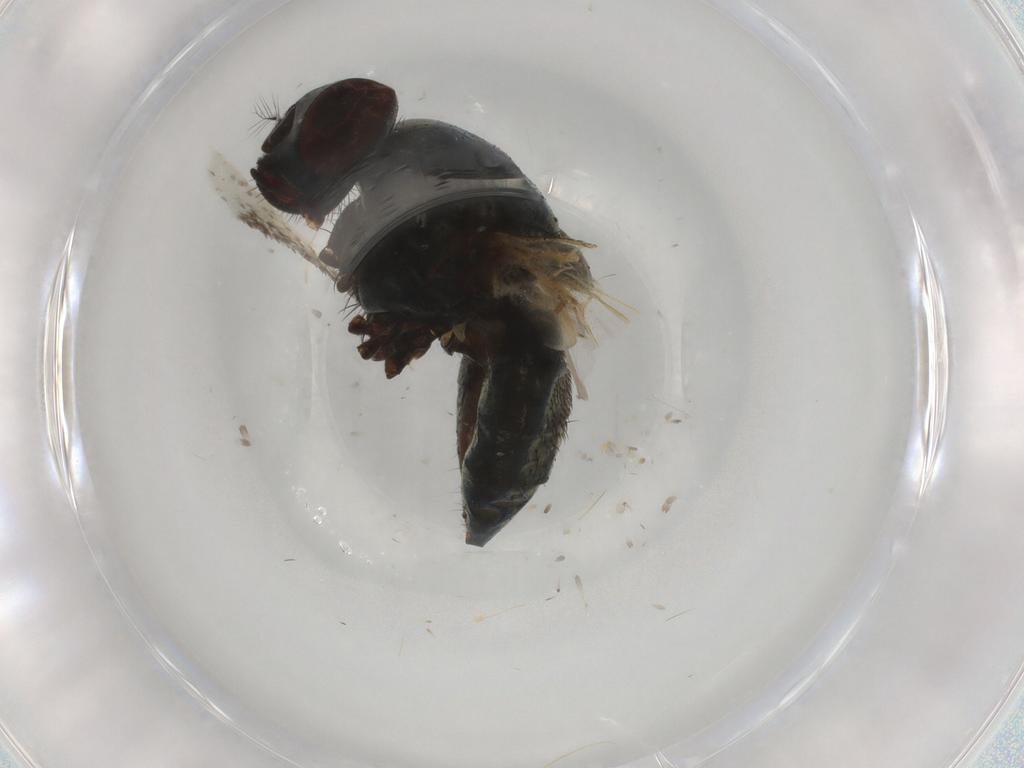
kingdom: Animalia
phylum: Arthropoda
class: Insecta
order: Diptera
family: Muscidae
